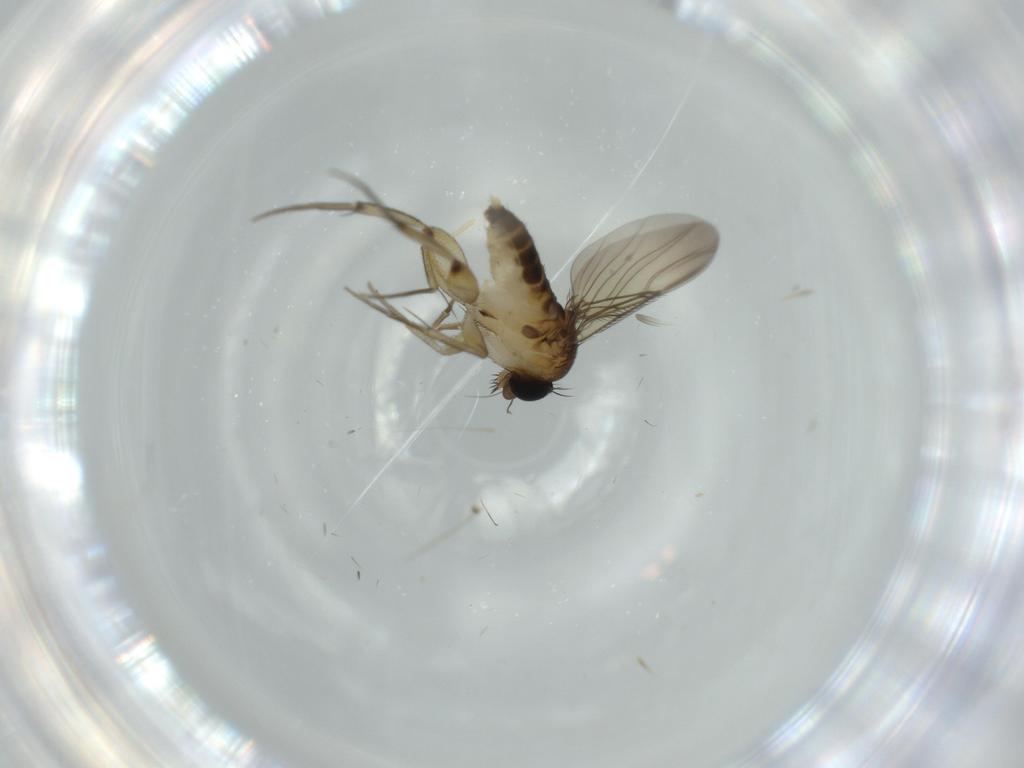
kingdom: Animalia
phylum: Arthropoda
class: Insecta
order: Diptera
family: Phoridae
